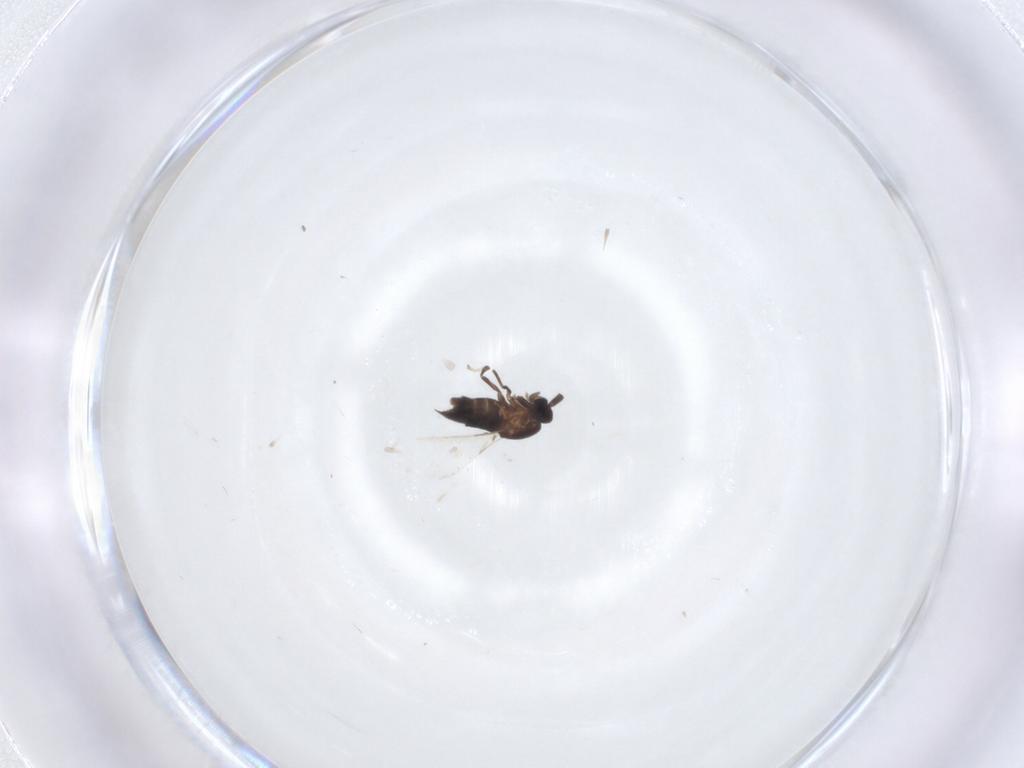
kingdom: Animalia
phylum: Arthropoda
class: Insecta
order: Diptera
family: Scatopsidae
